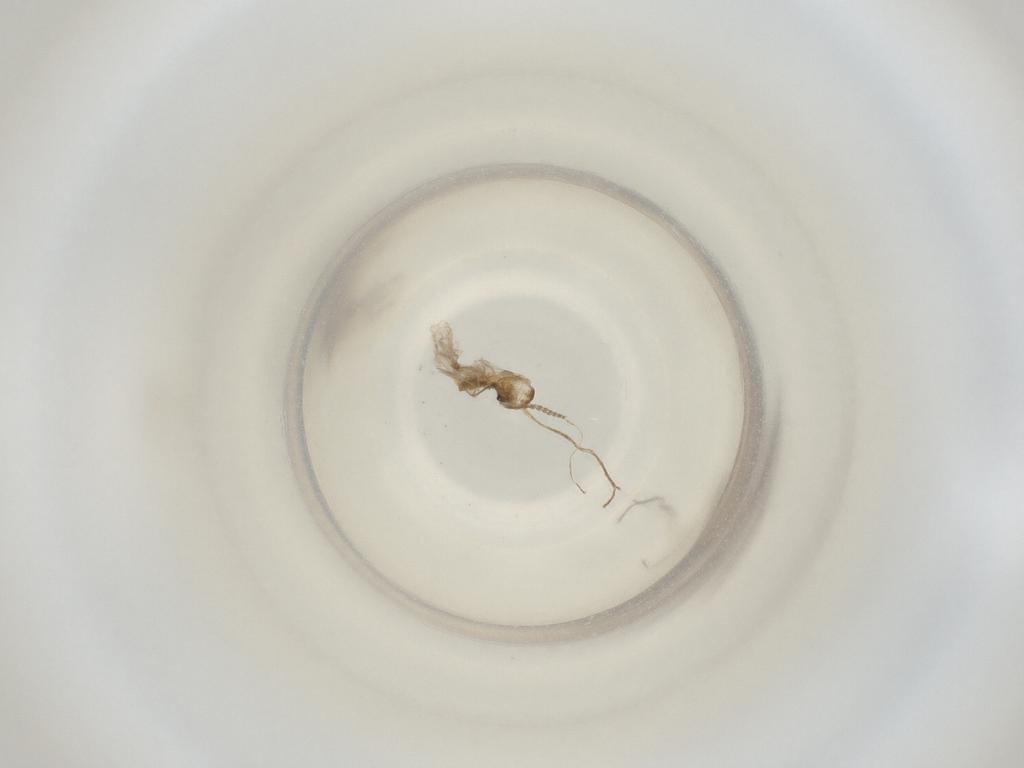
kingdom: Animalia
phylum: Arthropoda
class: Insecta
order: Diptera
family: Cecidomyiidae
